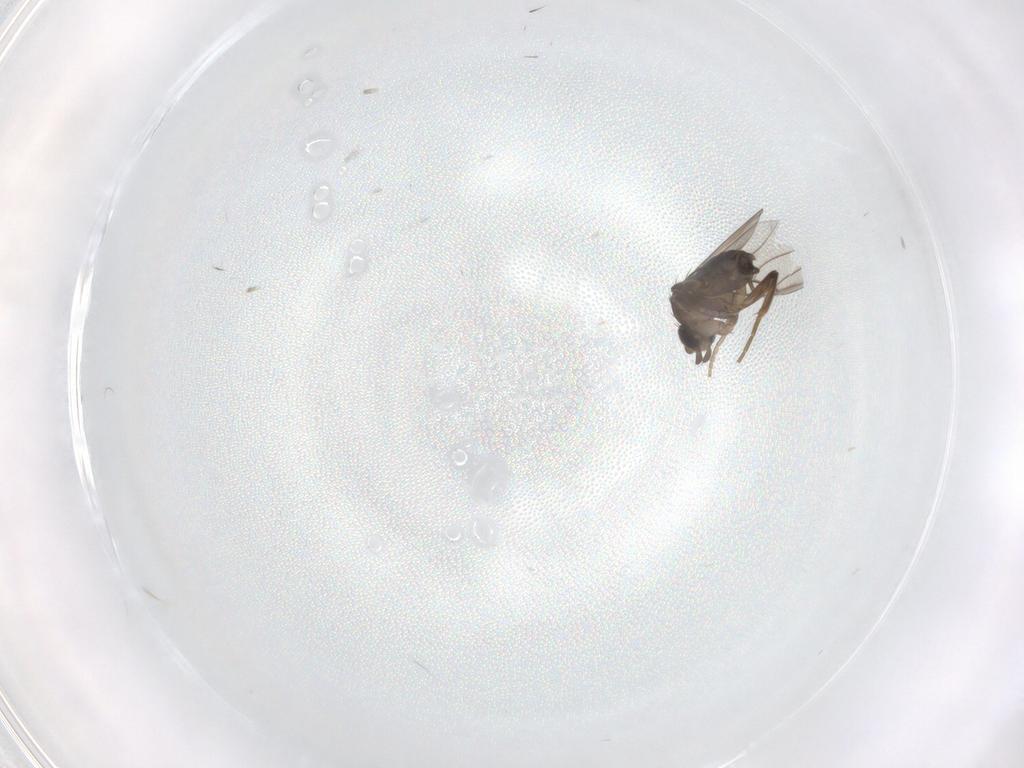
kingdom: Animalia
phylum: Arthropoda
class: Insecta
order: Diptera
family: Phoridae
